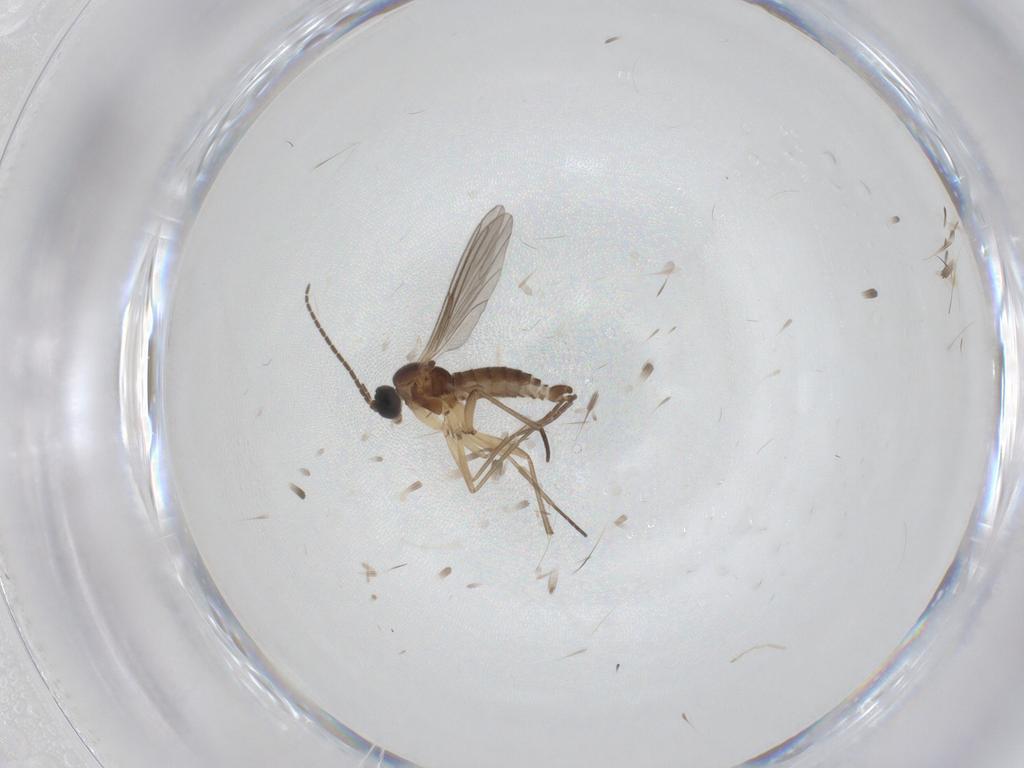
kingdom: Animalia
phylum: Arthropoda
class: Insecta
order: Diptera
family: Sciaridae
